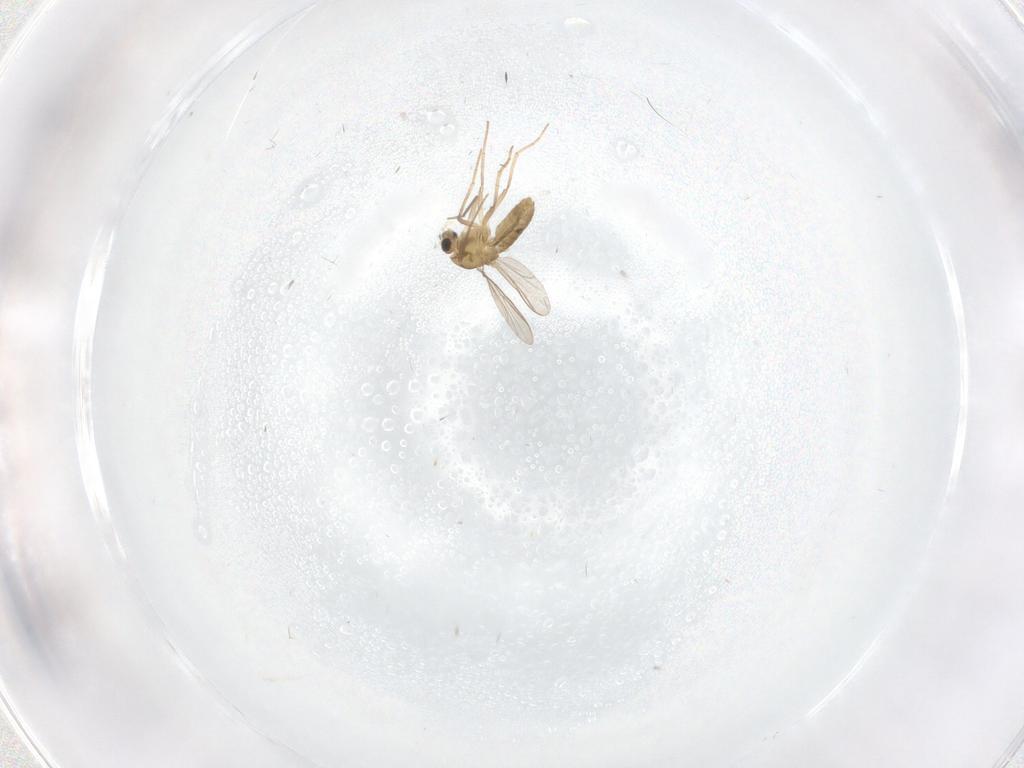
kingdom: Animalia
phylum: Arthropoda
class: Insecta
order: Diptera
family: Chironomidae
